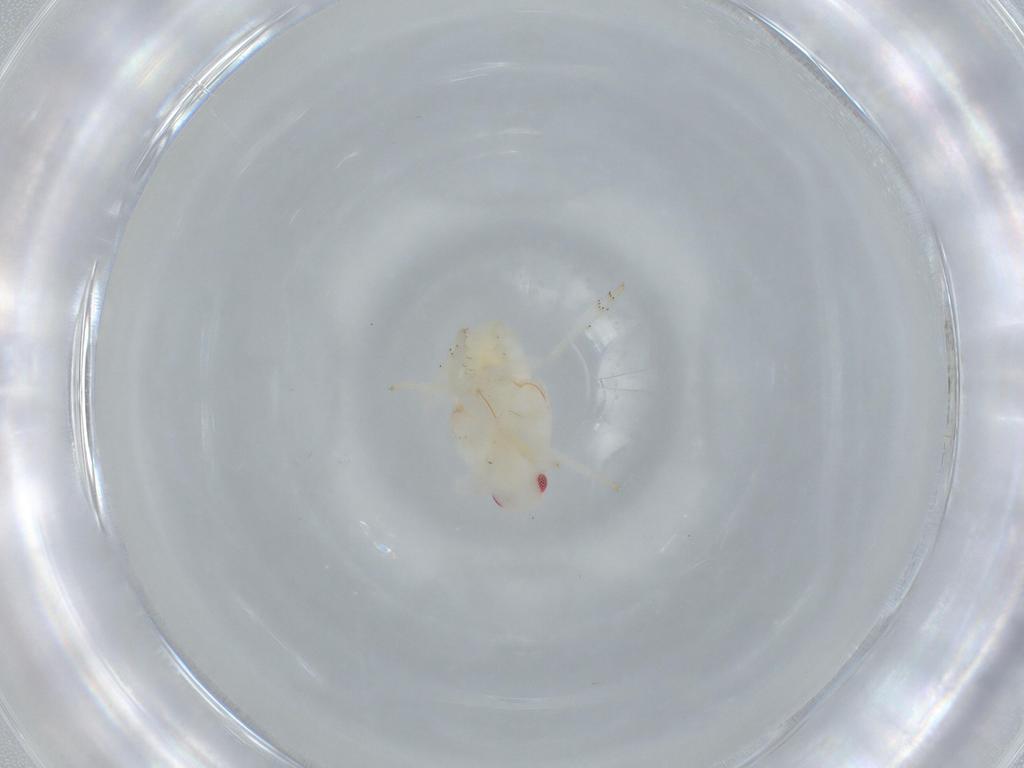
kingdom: Animalia
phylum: Arthropoda
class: Insecta
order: Hemiptera
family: Flatidae
